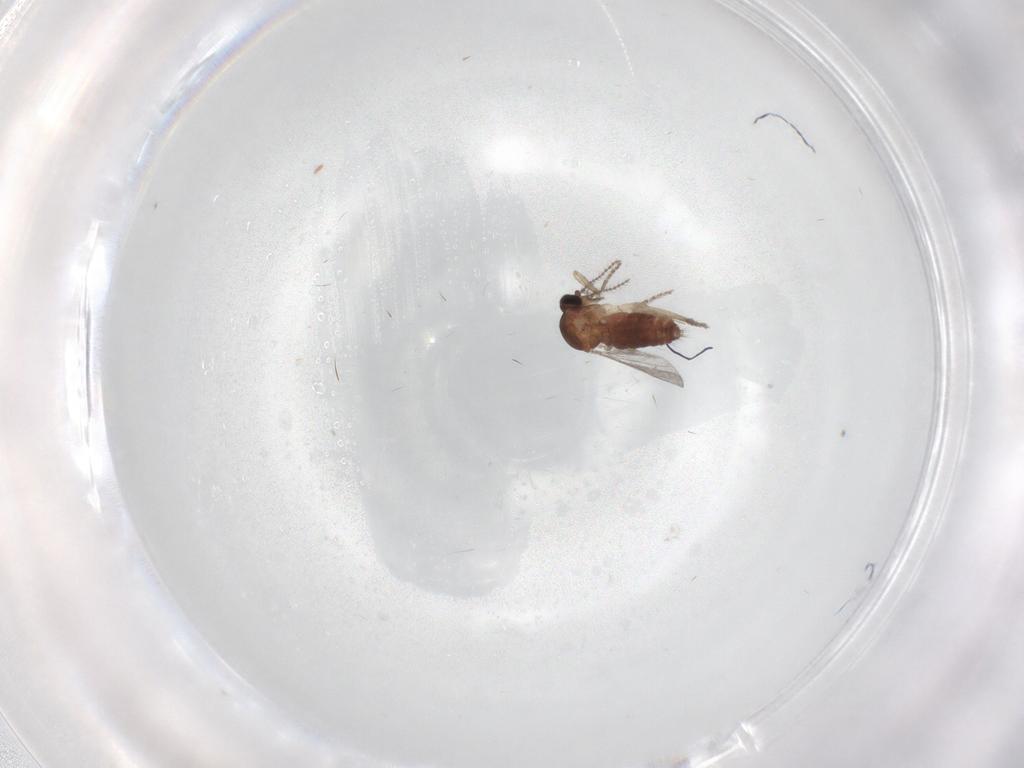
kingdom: Animalia
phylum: Arthropoda
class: Insecta
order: Diptera
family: Ceratopogonidae
